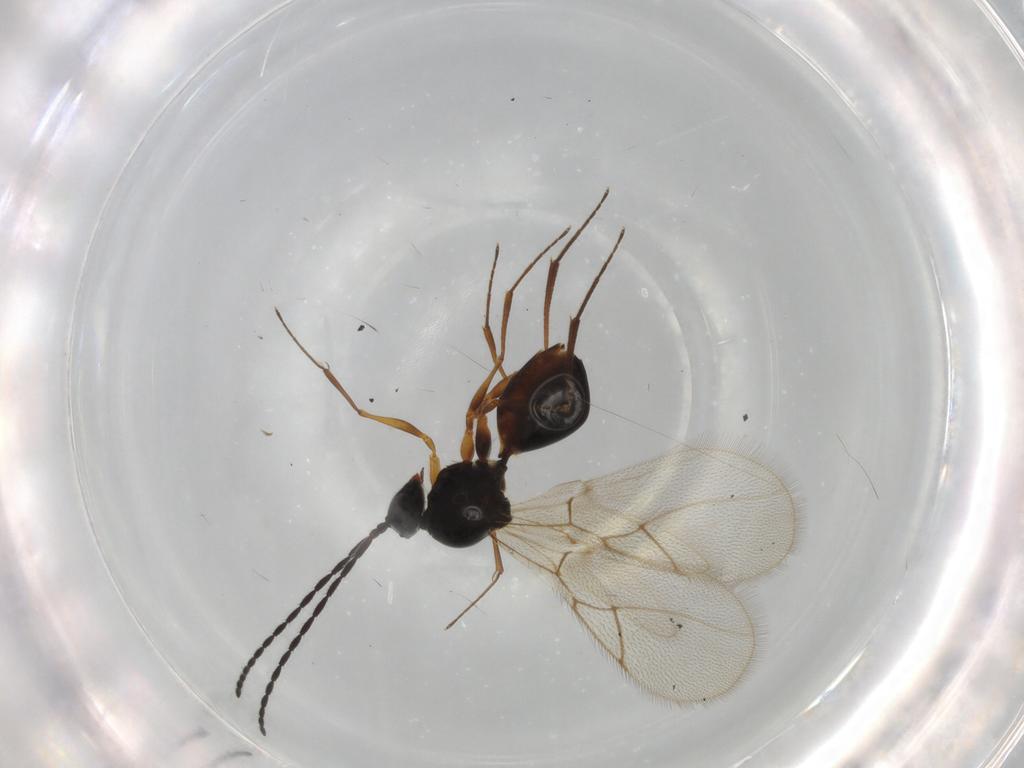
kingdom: Animalia
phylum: Arthropoda
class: Insecta
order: Hymenoptera
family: Figitidae
